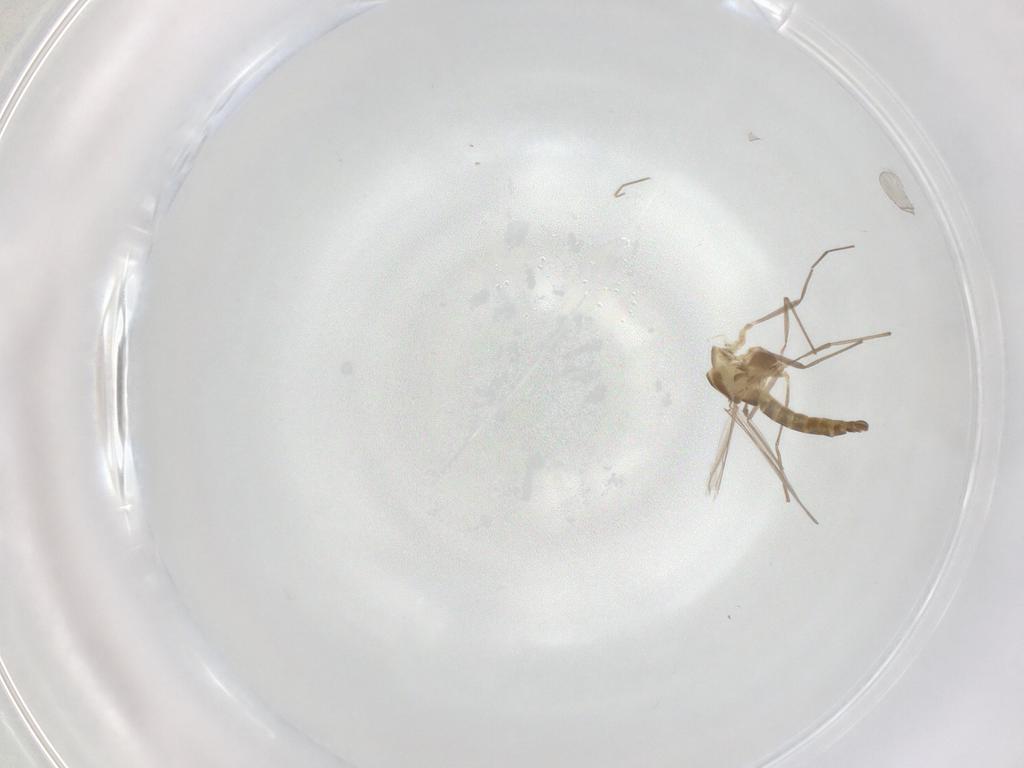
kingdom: Animalia
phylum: Arthropoda
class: Insecta
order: Diptera
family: Chironomidae
